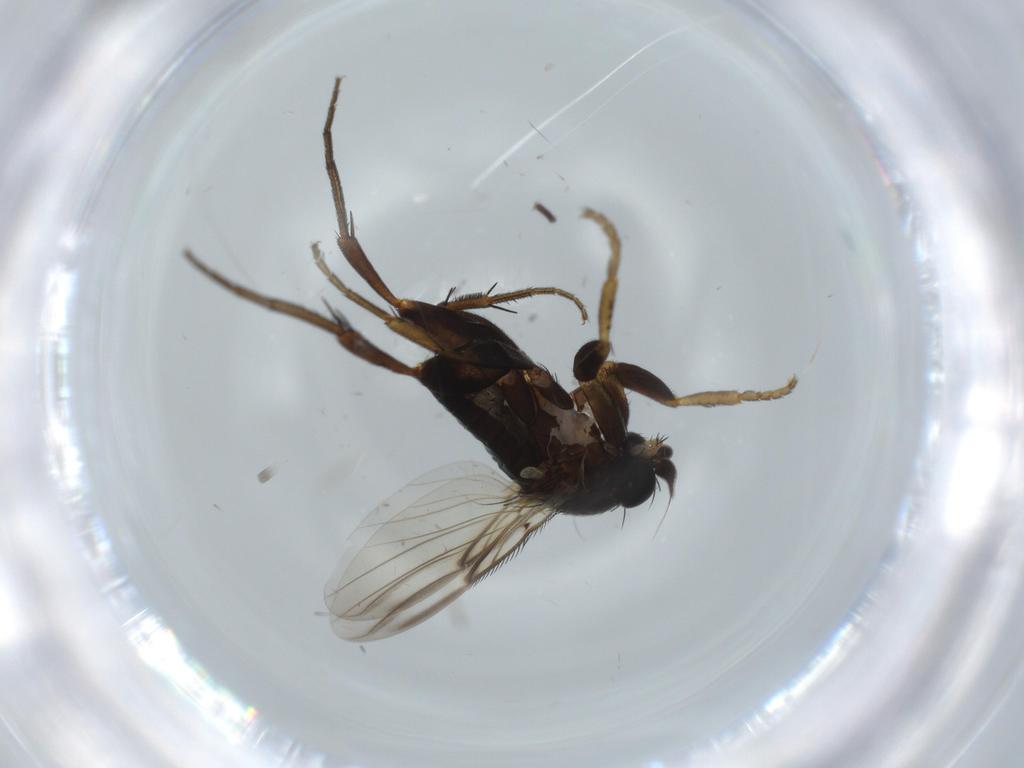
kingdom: Animalia
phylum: Arthropoda
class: Insecta
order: Diptera
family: Phoridae
